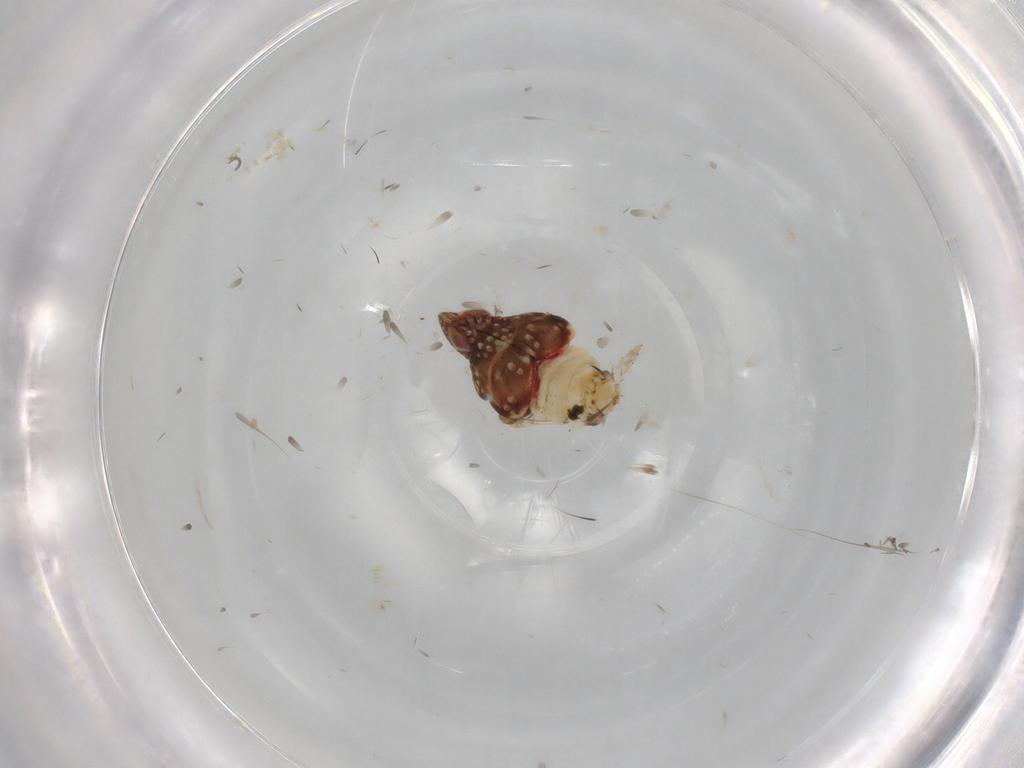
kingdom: Animalia
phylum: Arthropoda
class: Insecta
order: Hemiptera
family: Nogodinidae
